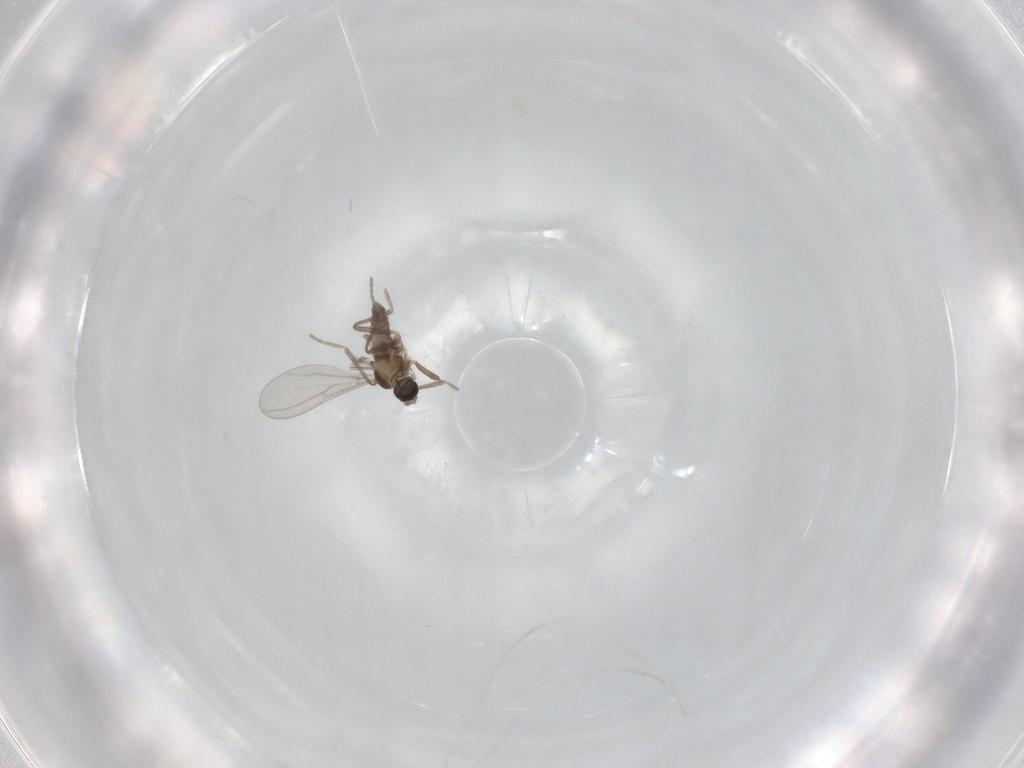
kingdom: Animalia
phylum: Arthropoda
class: Insecta
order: Diptera
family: Cecidomyiidae
